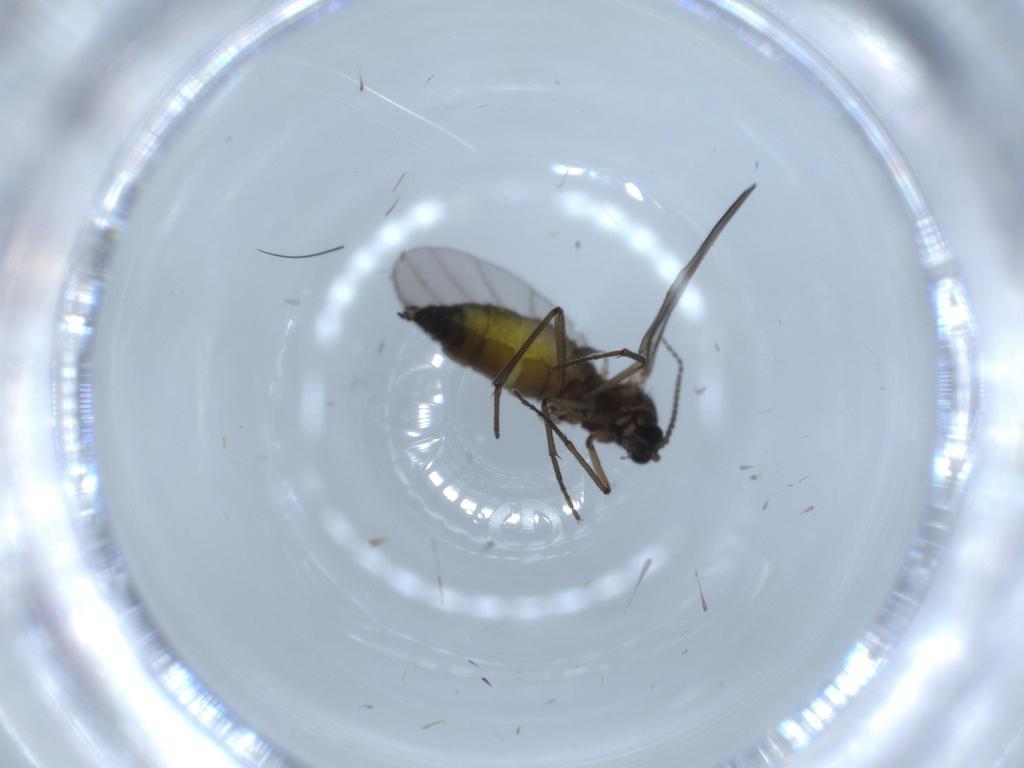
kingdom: Animalia
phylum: Arthropoda
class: Insecta
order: Diptera
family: Sciaridae
